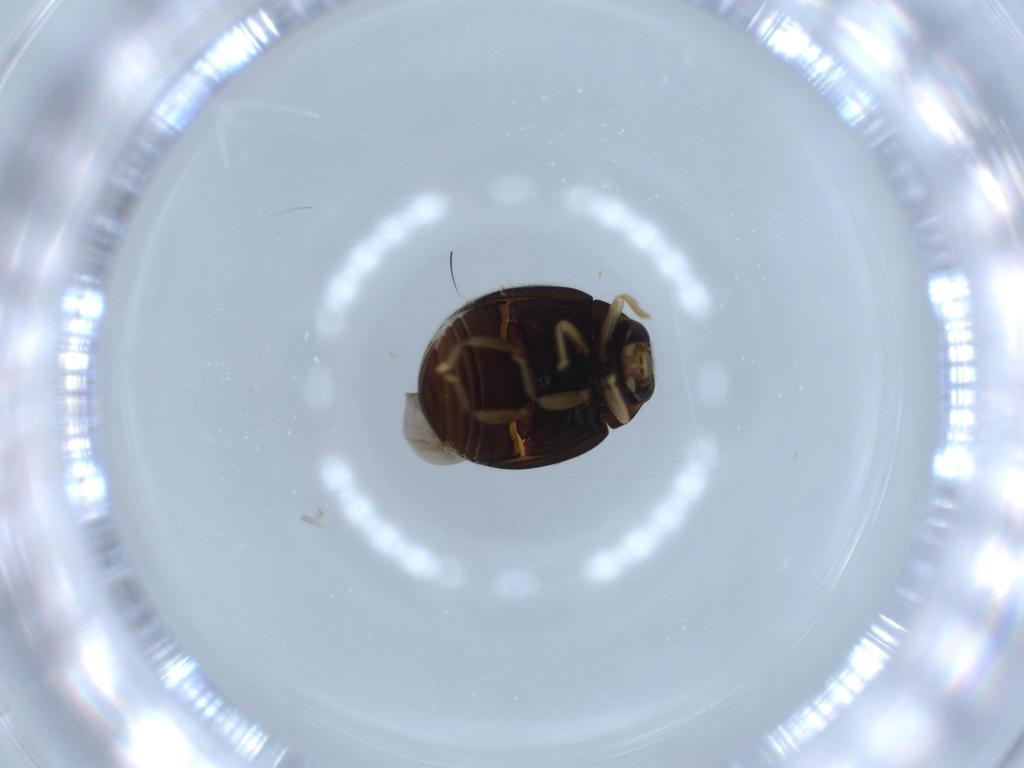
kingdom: Animalia
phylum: Arthropoda
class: Insecta
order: Coleoptera
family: Coccinellidae
